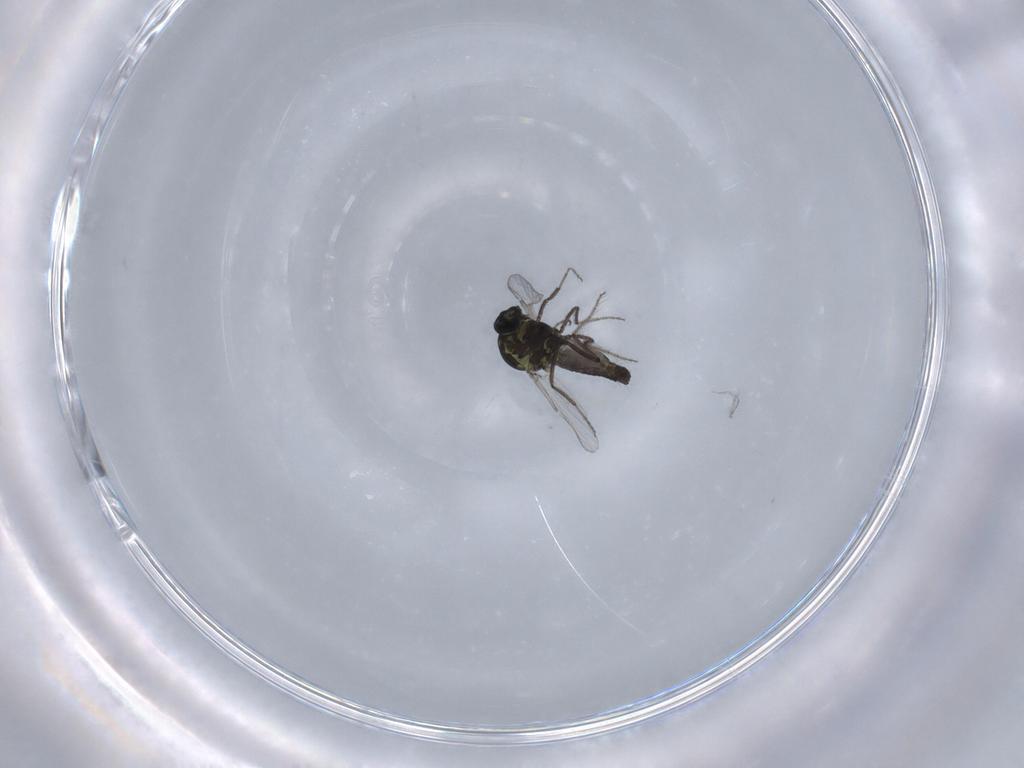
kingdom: Animalia
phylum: Arthropoda
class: Insecta
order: Diptera
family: Ceratopogonidae
